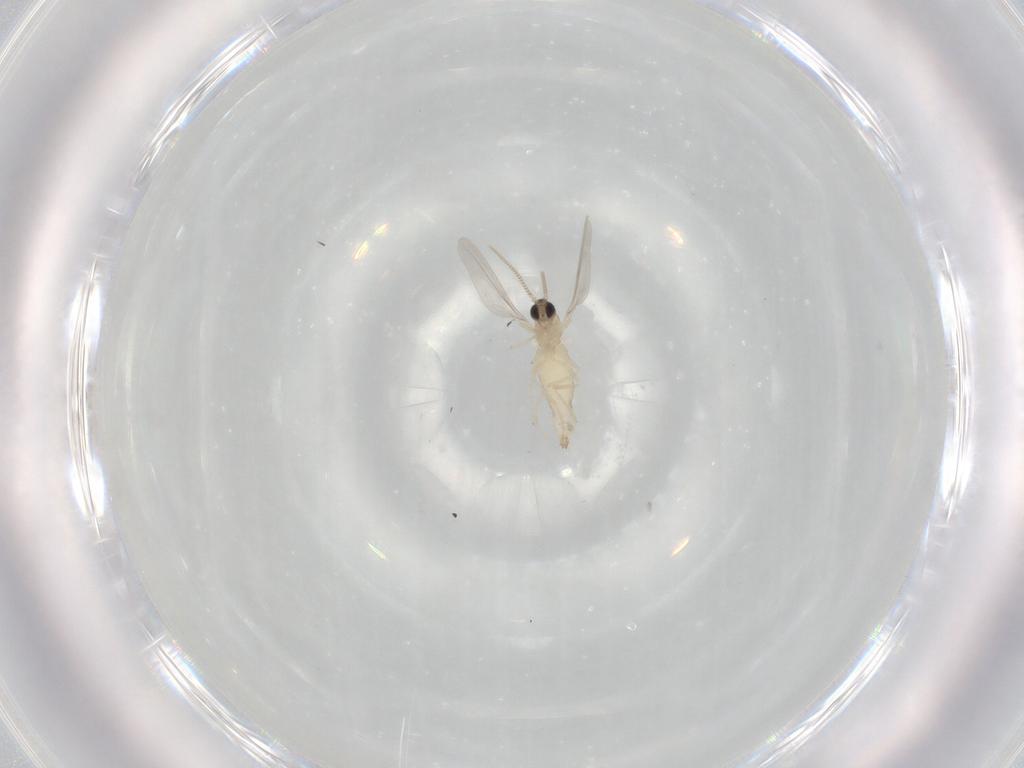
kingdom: Animalia
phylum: Arthropoda
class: Insecta
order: Diptera
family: Cecidomyiidae
